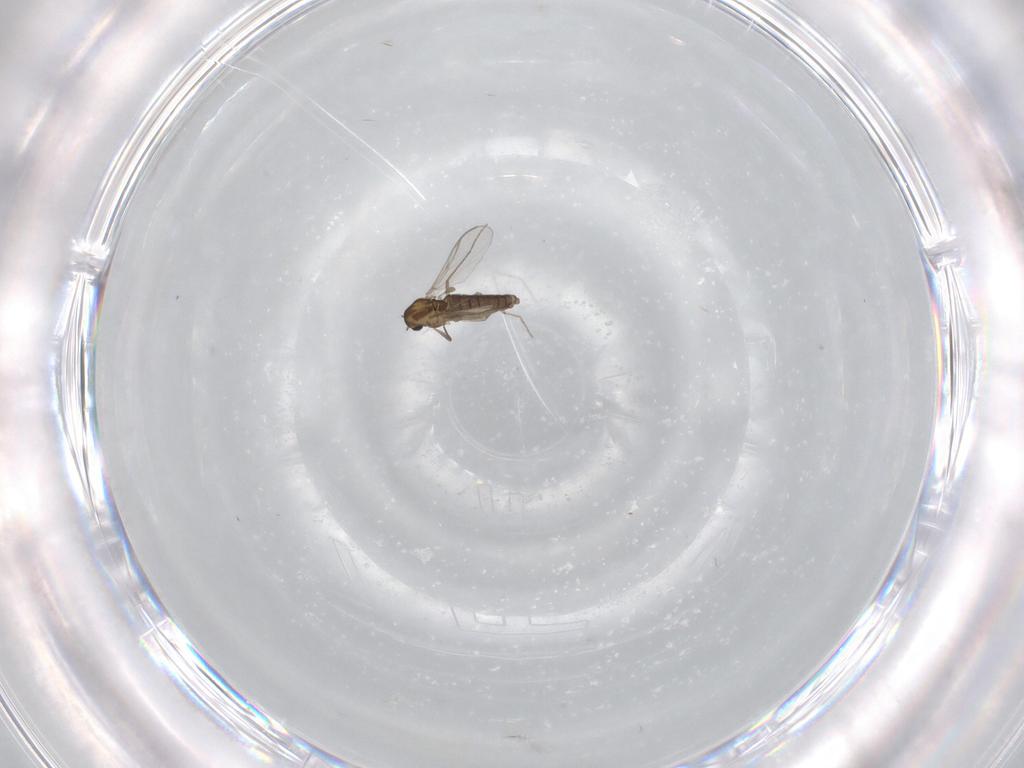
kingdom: Animalia
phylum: Arthropoda
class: Insecta
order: Diptera
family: Chironomidae
